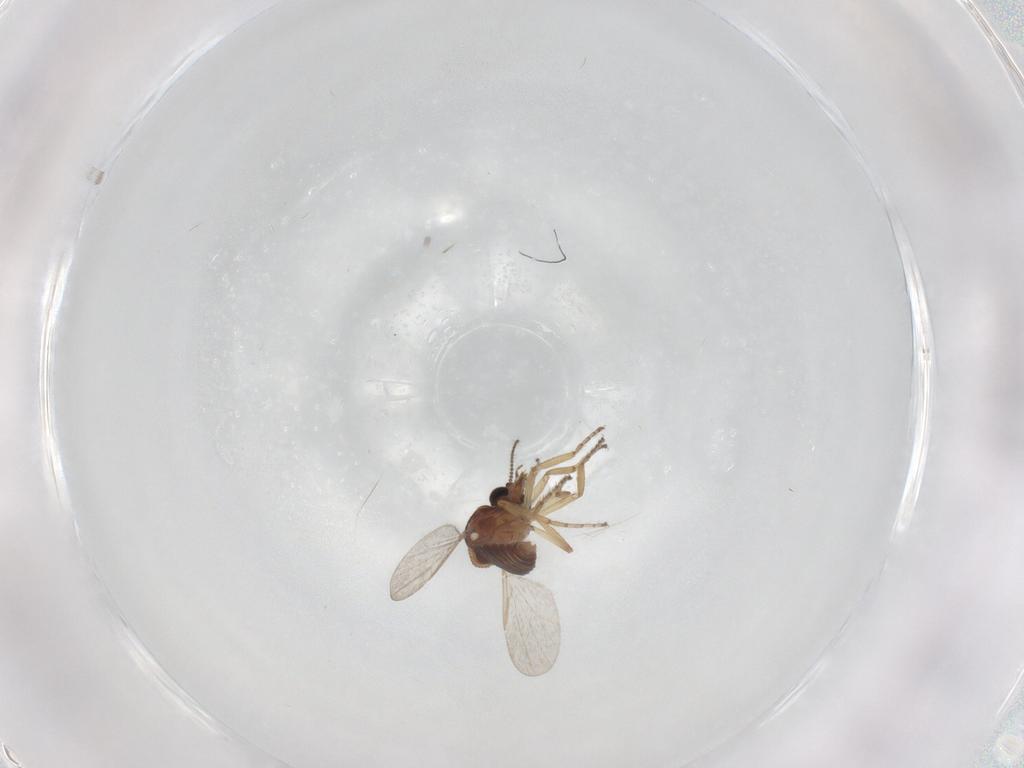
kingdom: Animalia
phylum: Arthropoda
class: Insecta
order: Diptera
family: Ceratopogonidae
